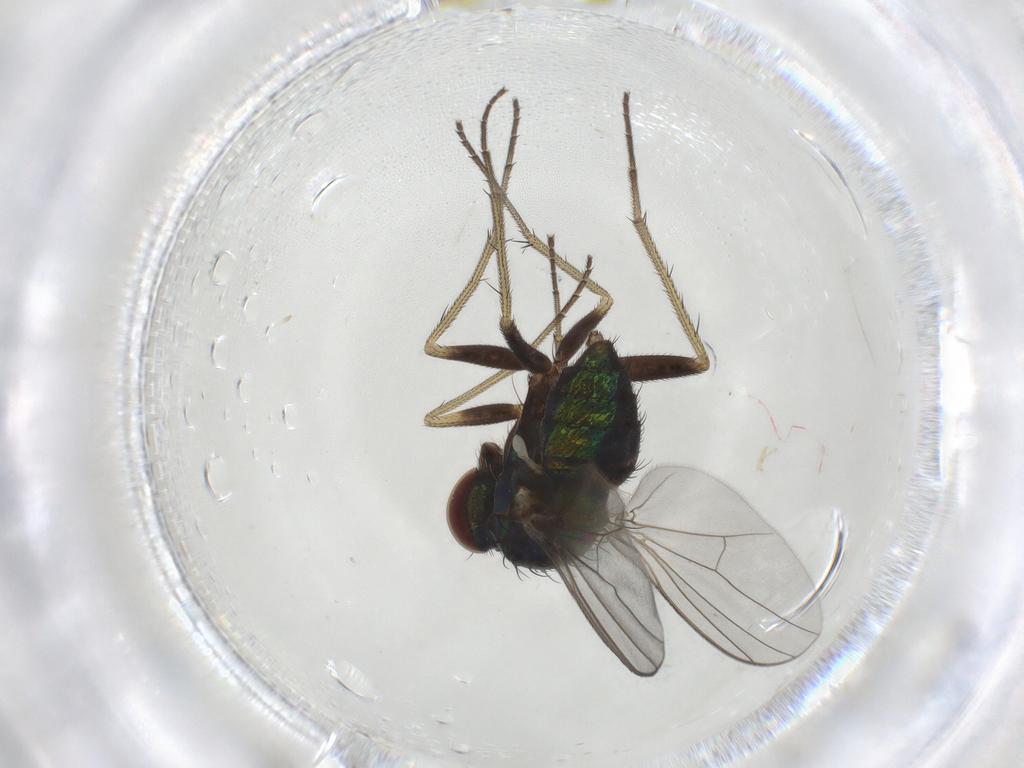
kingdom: Animalia
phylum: Arthropoda
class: Insecta
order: Diptera
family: Dolichopodidae
